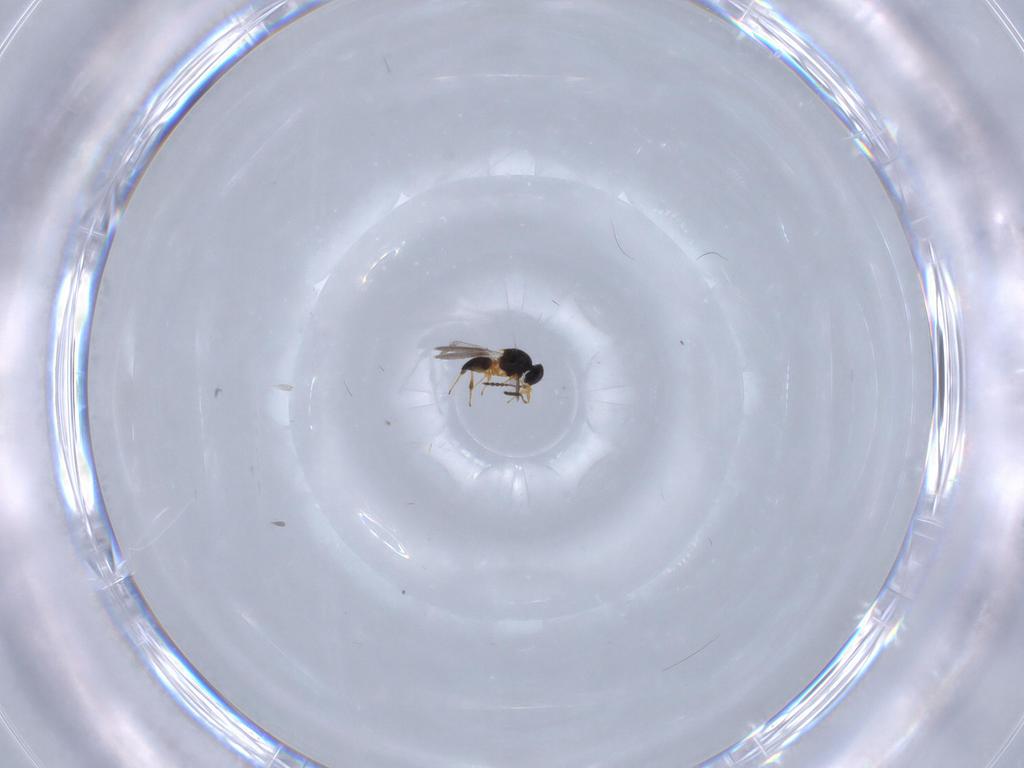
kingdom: Animalia
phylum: Arthropoda
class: Insecta
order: Hymenoptera
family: Platygastridae
